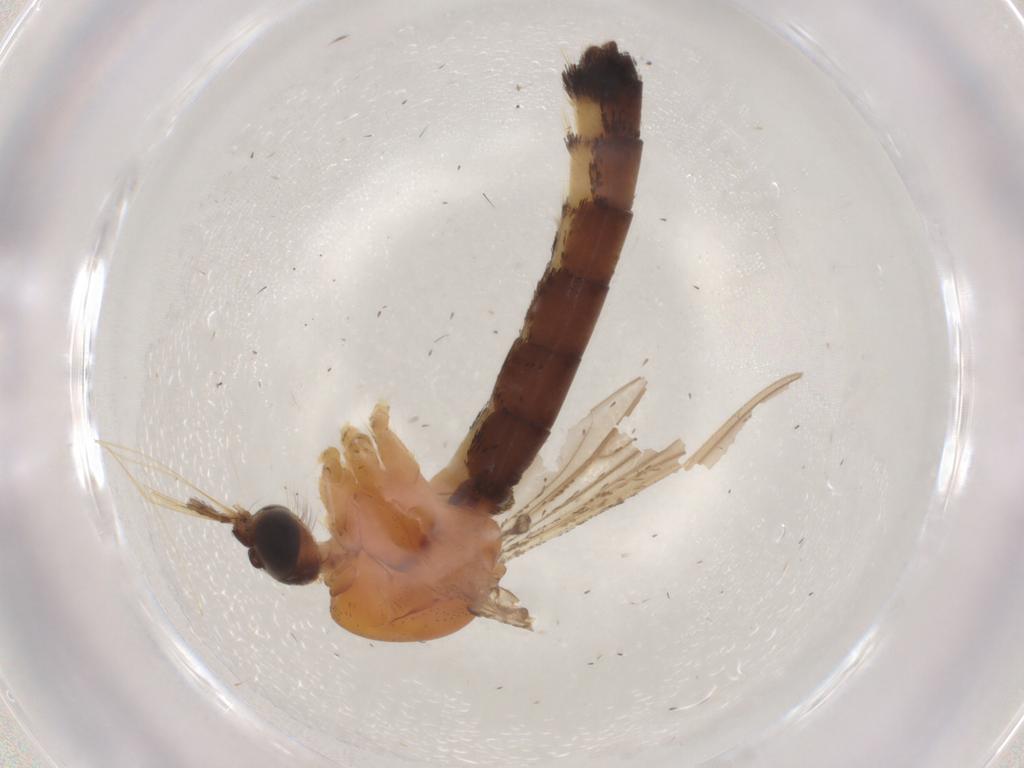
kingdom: Animalia
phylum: Arthropoda
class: Insecta
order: Diptera
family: Sciaridae
